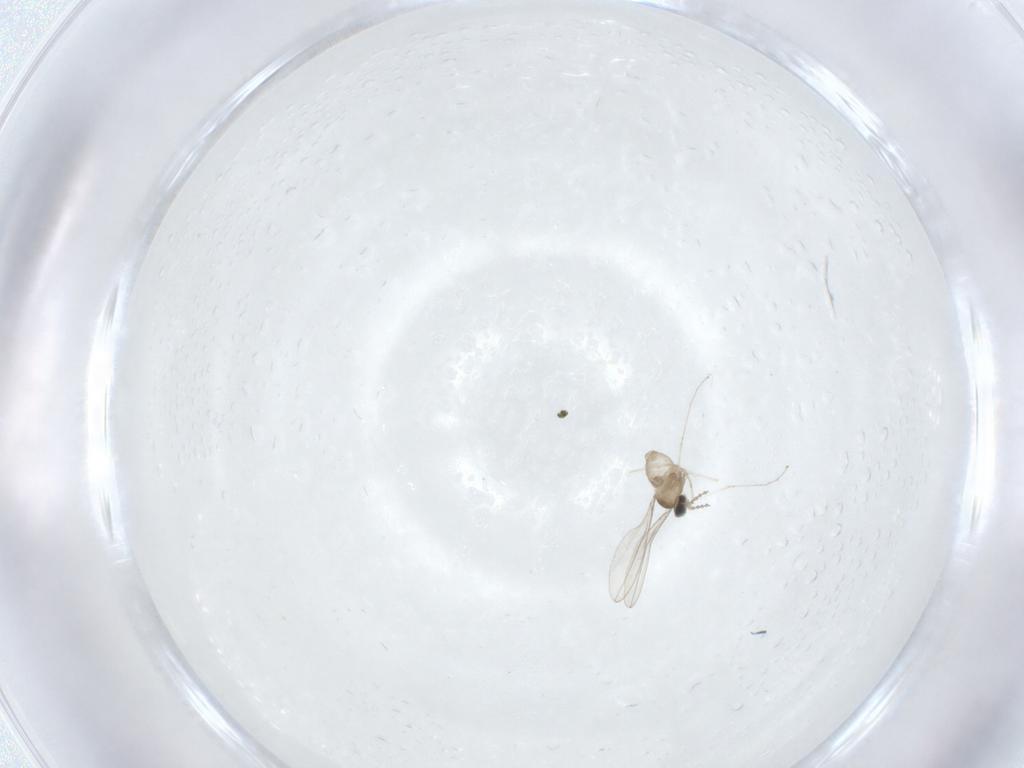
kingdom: Animalia
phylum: Arthropoda
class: Insecta
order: Diptera
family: Cecidomyiidae
